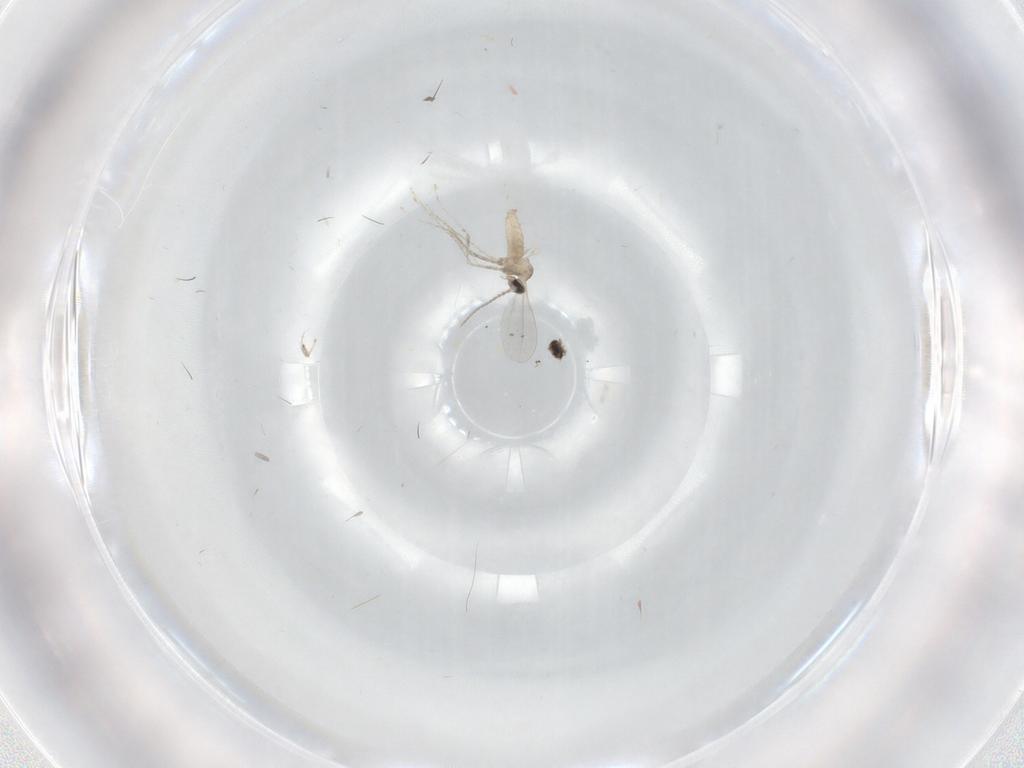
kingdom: Animalia
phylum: Arthropoda
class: Insecta
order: Diptera
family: Cecidomyiidae
